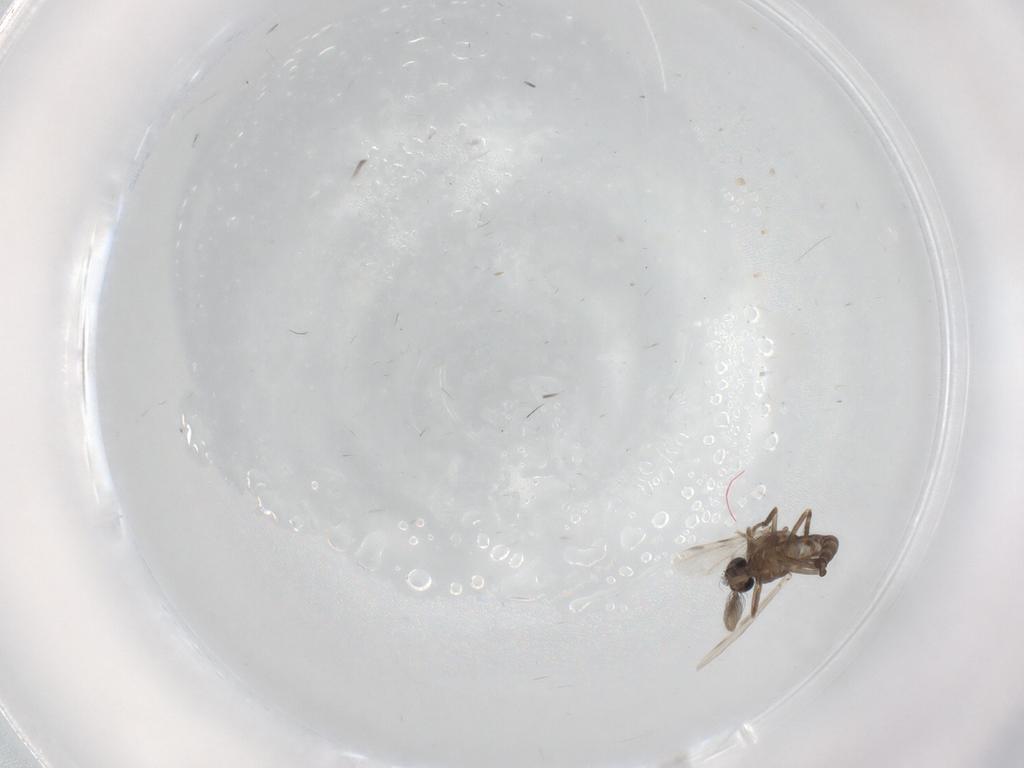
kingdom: Animalia
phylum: Arthropoda
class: Insecta
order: Diptera
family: Ceratopogonidae
